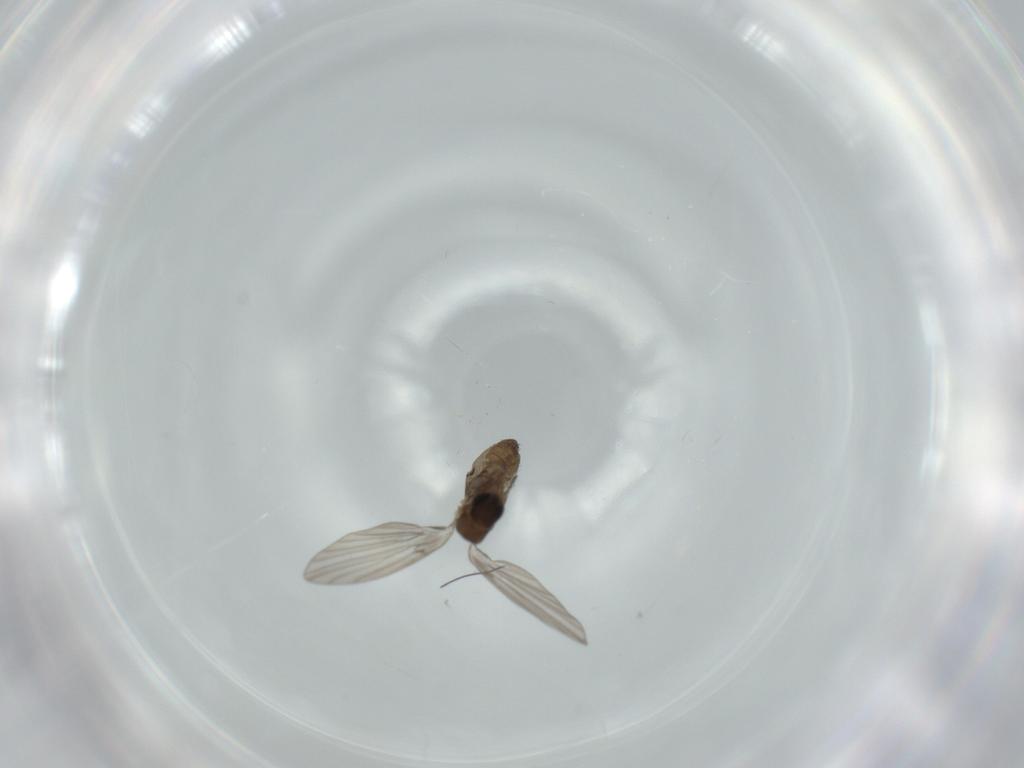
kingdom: Animalia
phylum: Arthropoda
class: Insecta
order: Diptera
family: Psychodidae
